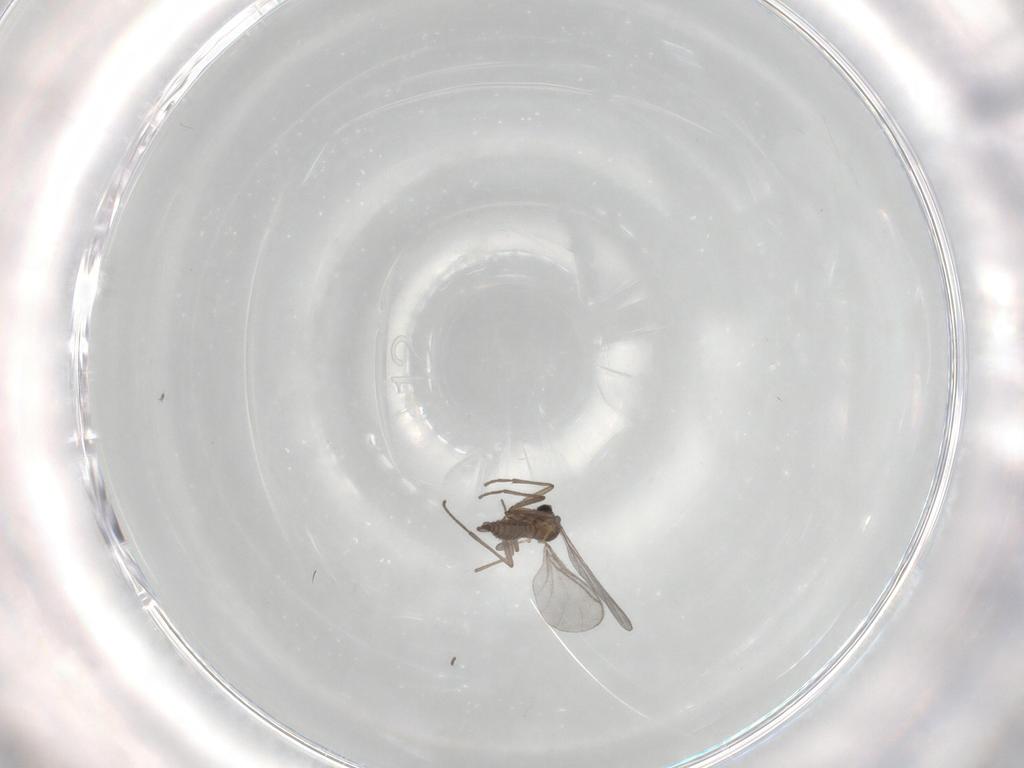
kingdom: Animalia
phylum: Arthropoda
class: Insecta
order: Diptera
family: Sciaridae
